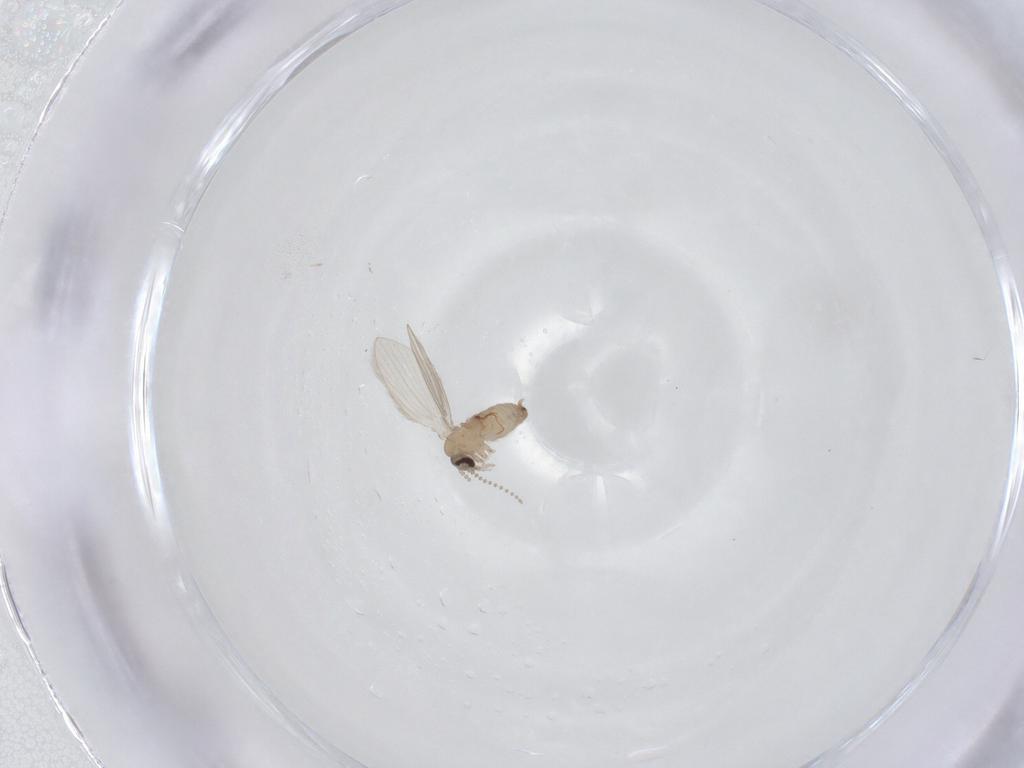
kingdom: Animalia
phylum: Arthropoda
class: Insecta
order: Diptera
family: Psychodidae
